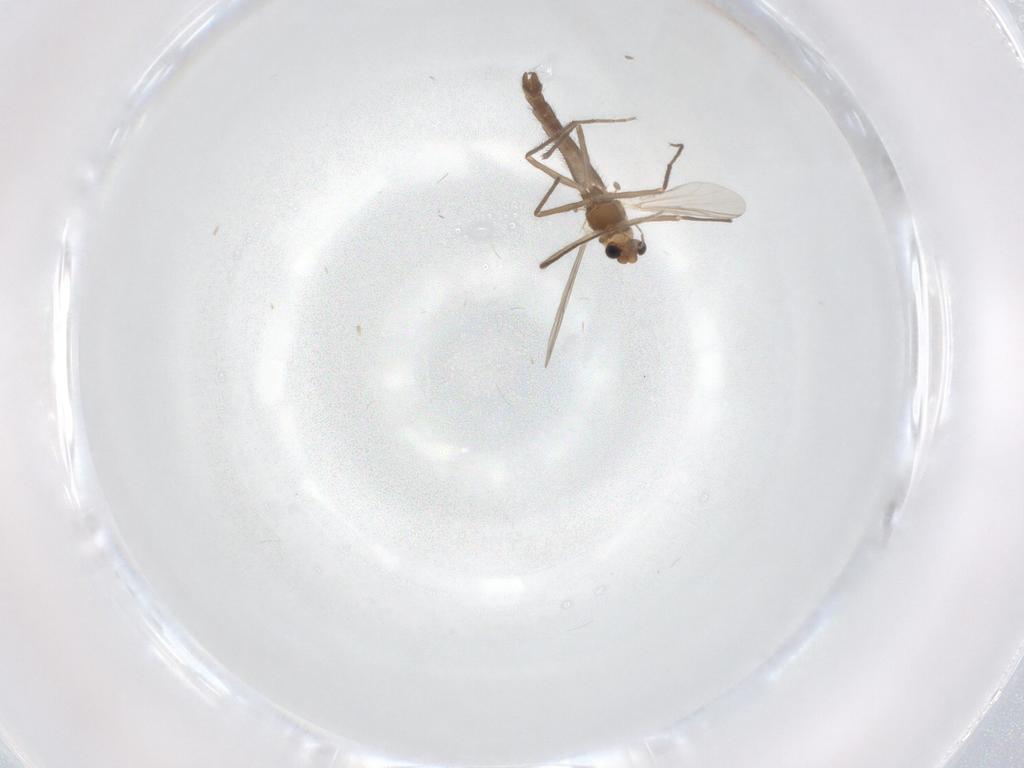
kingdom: Animalia
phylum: Arthropoda
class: Insecta
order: Diptera
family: Chironomidae
